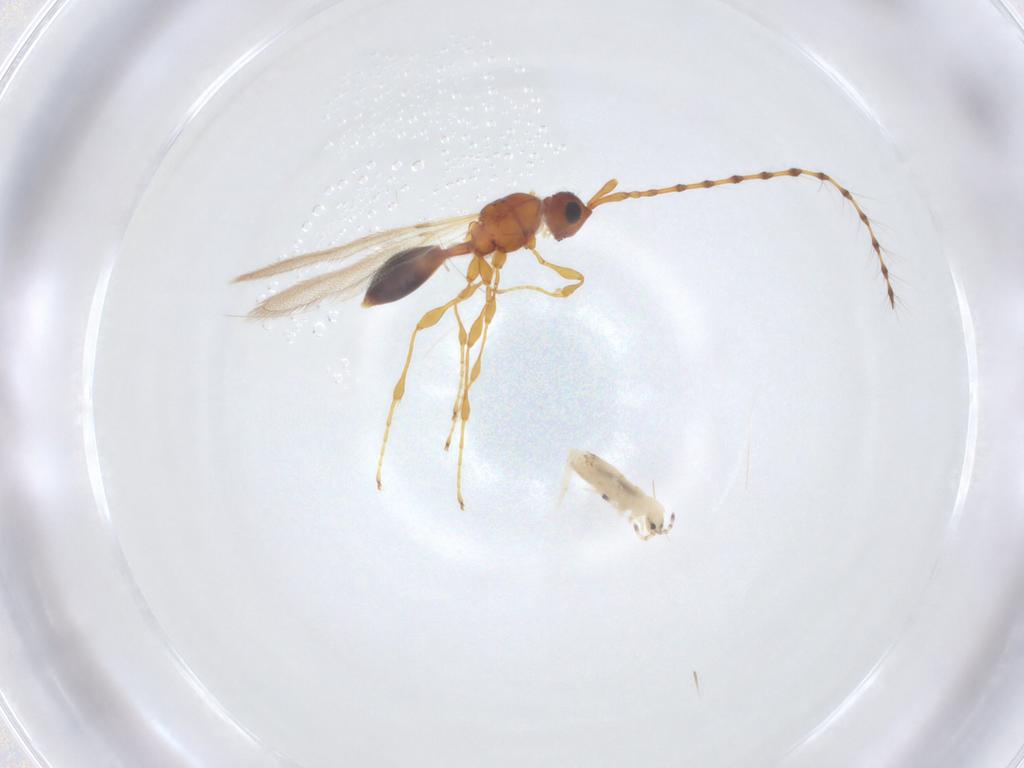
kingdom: Animalia
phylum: Arthropoda
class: Insecta
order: Hymenoptera
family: Diapriidae
